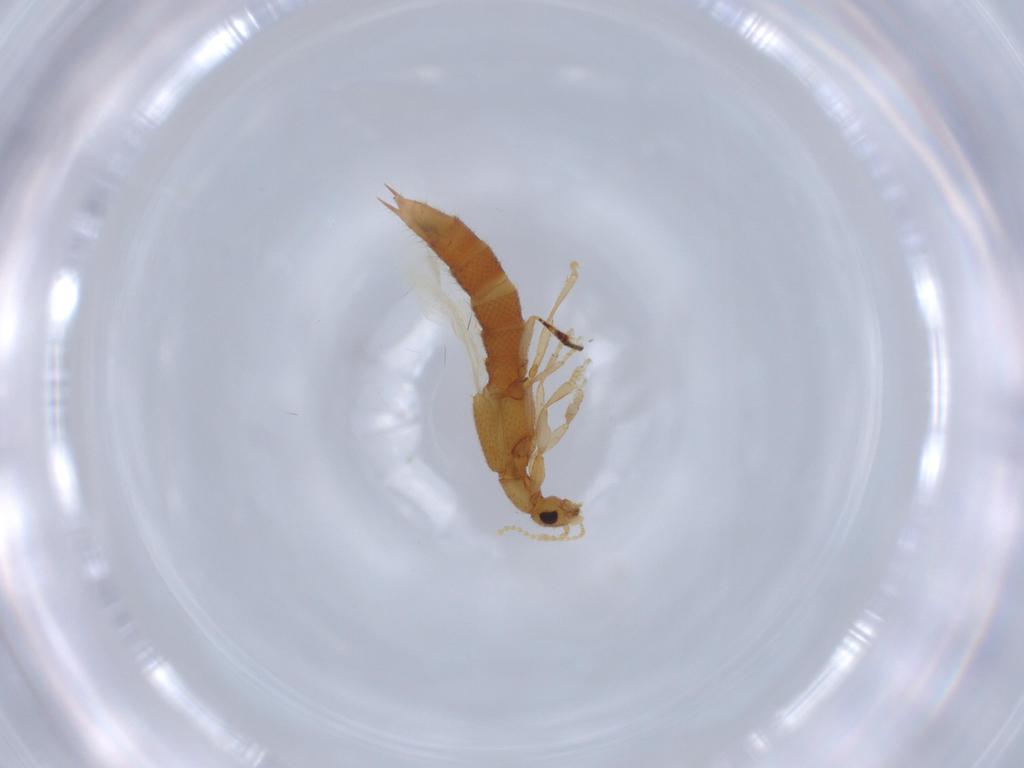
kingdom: Animalia
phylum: Arthropoda
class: Insecta
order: Coleoptera
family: Staphylinidae
